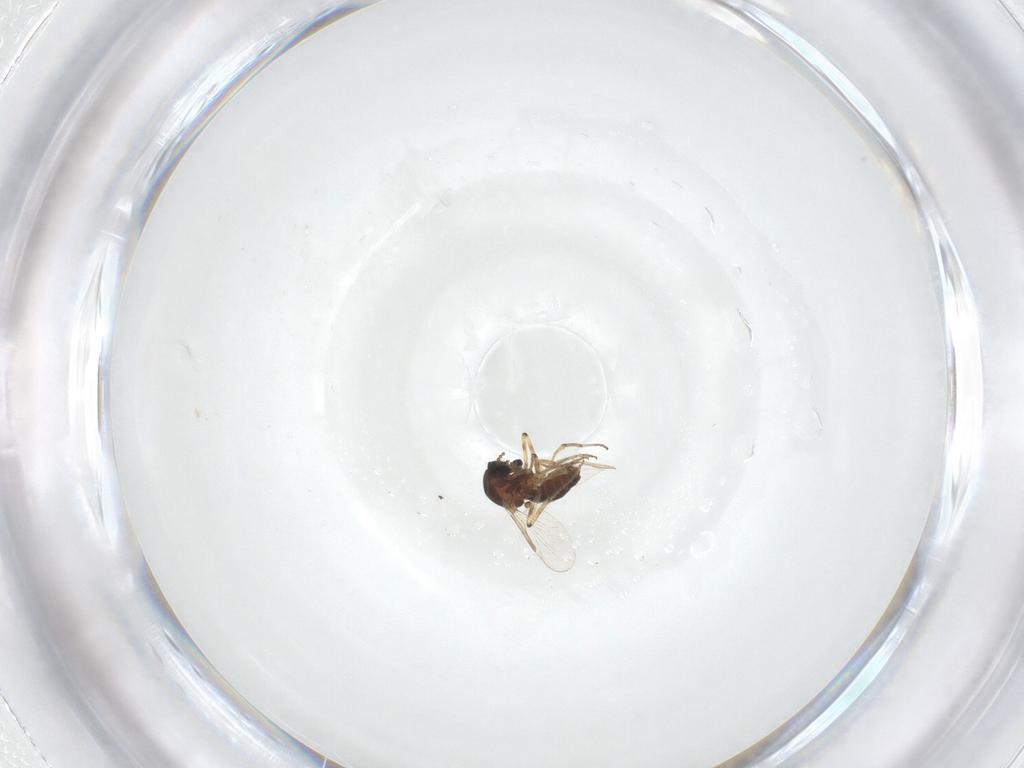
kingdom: Animalia
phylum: Arthropoda
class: Insecta
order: Diptera
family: Ceratopogonidae
